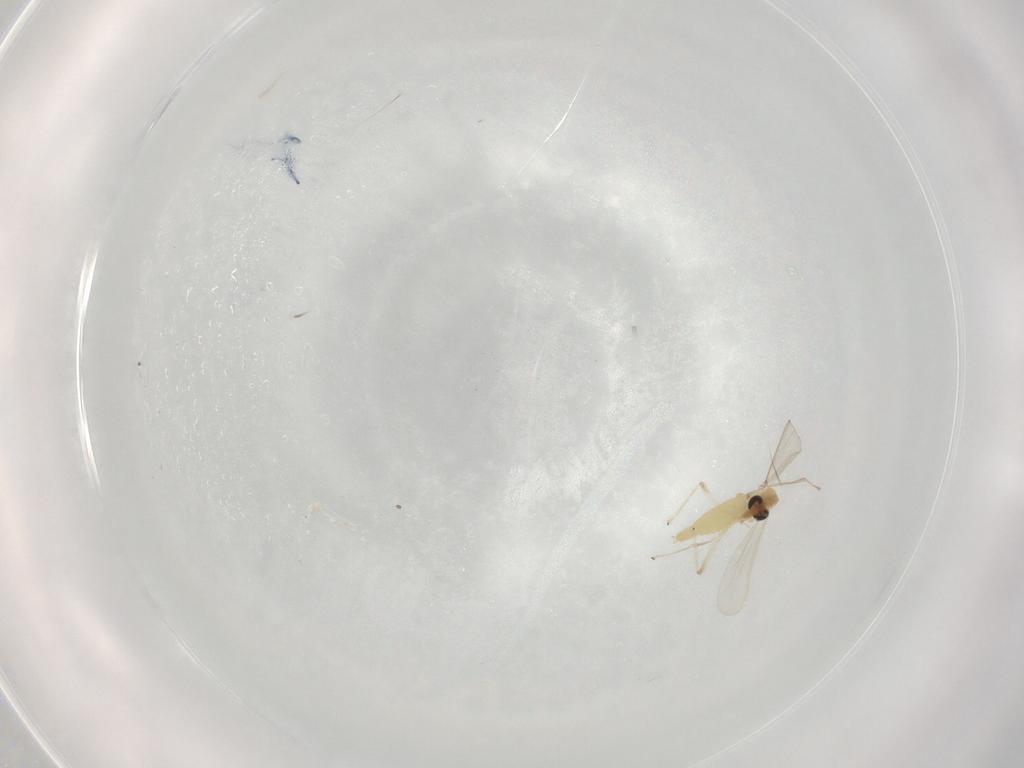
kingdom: Animalia
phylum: Arthropoda
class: Insecta
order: Diptera
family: Chironomidae
